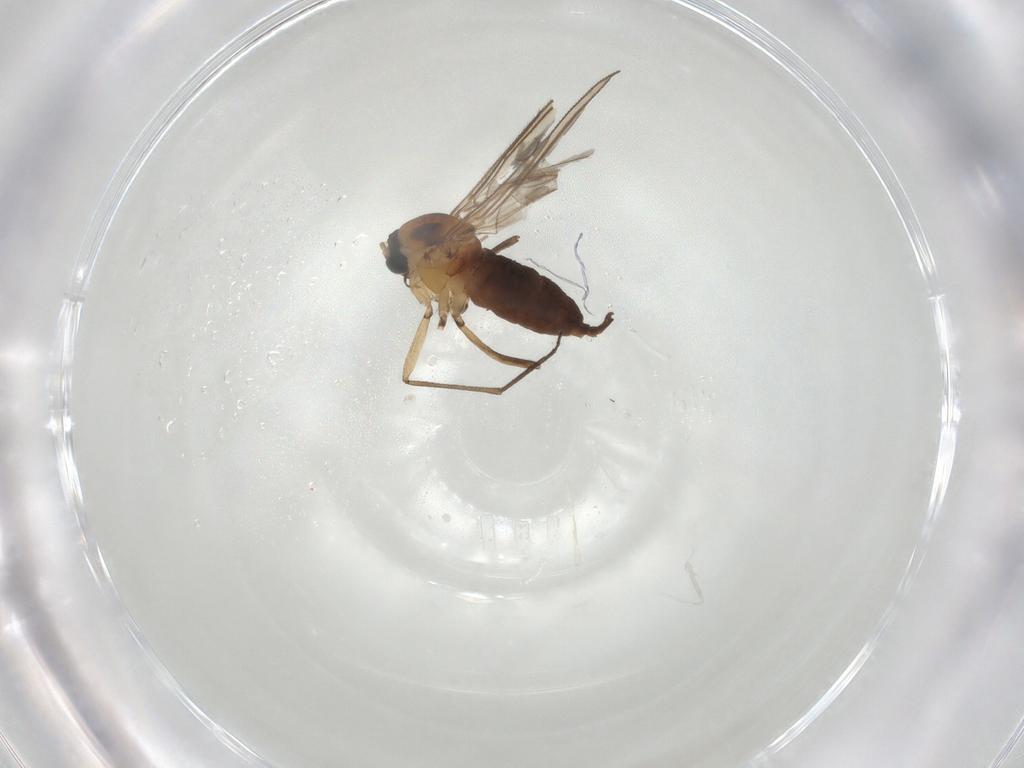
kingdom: Animalia
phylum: Arthropoda
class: Insecta
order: Diptera
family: Sciaridae
